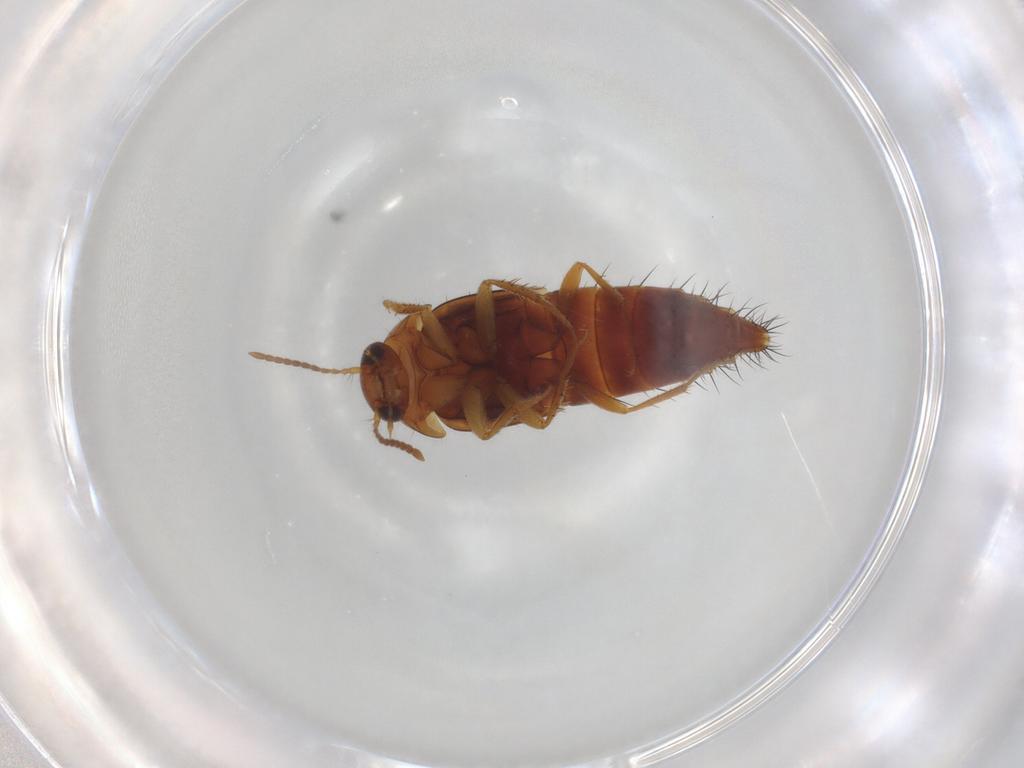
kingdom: Animalia
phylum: Arthropoda
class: Insecta
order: Coleoptera
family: Staphylinidae
